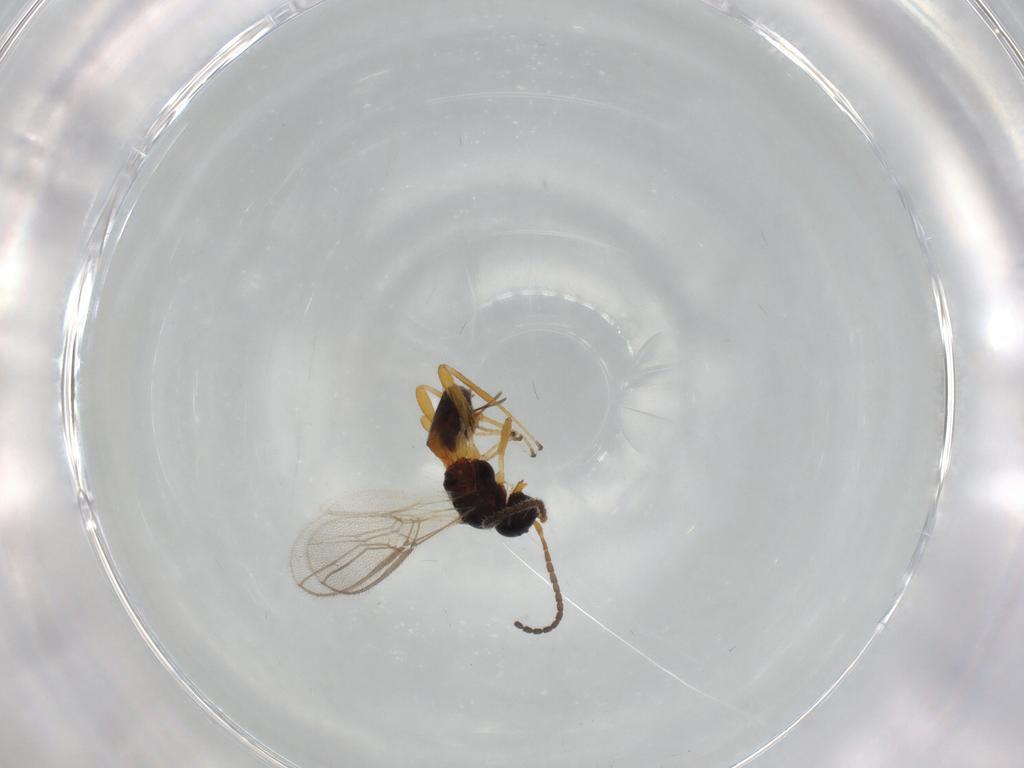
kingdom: Animalia
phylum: Arthropoda
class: Insecta
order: Hymenoptera
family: Braconidae
